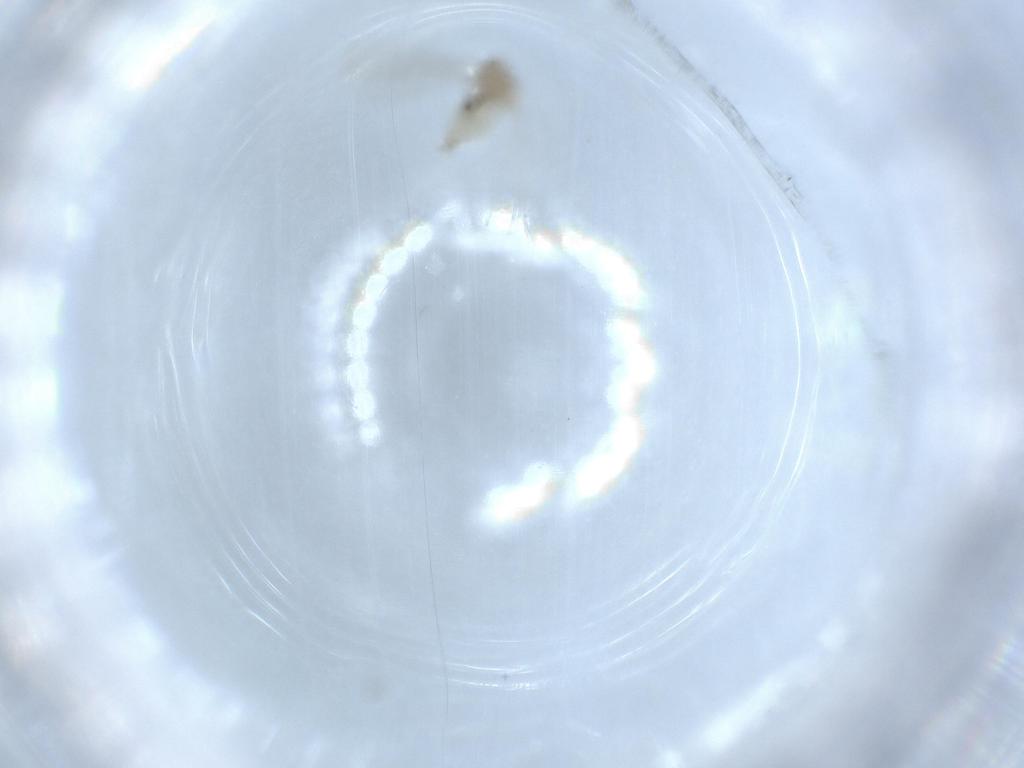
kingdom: Animalia
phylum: Arthropoda
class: Insecta
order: Diptera
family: Cecidomyiidae
